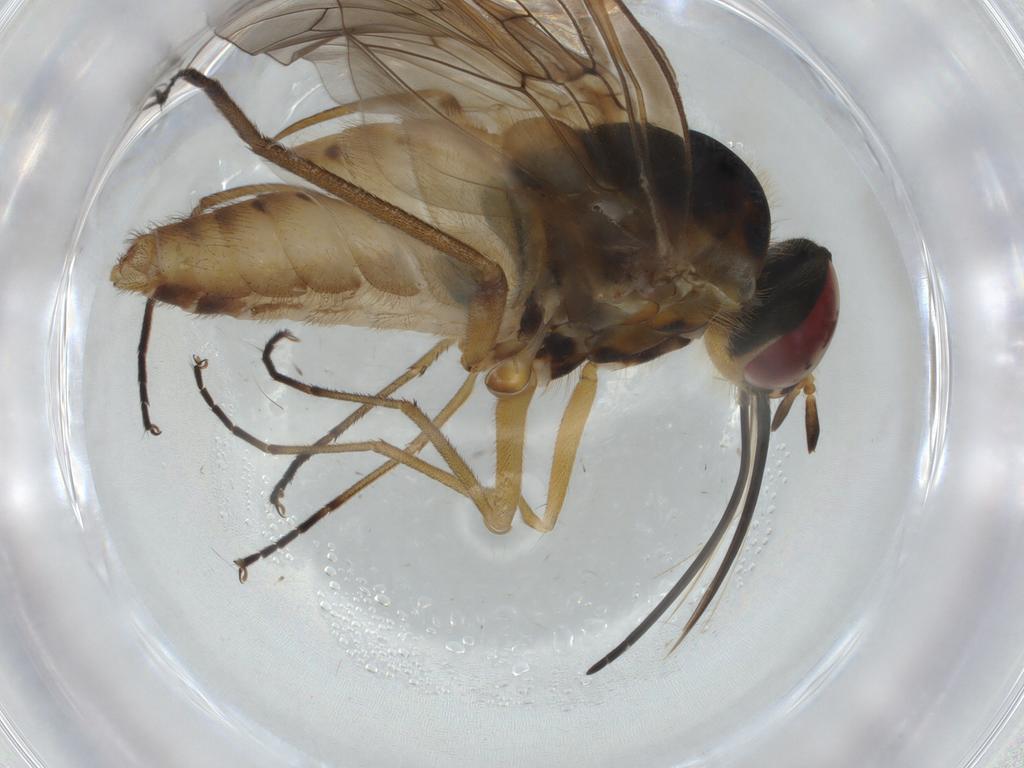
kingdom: Animalia
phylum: Arthropoda
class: Insecta
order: Diptera
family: Bombyliidae
